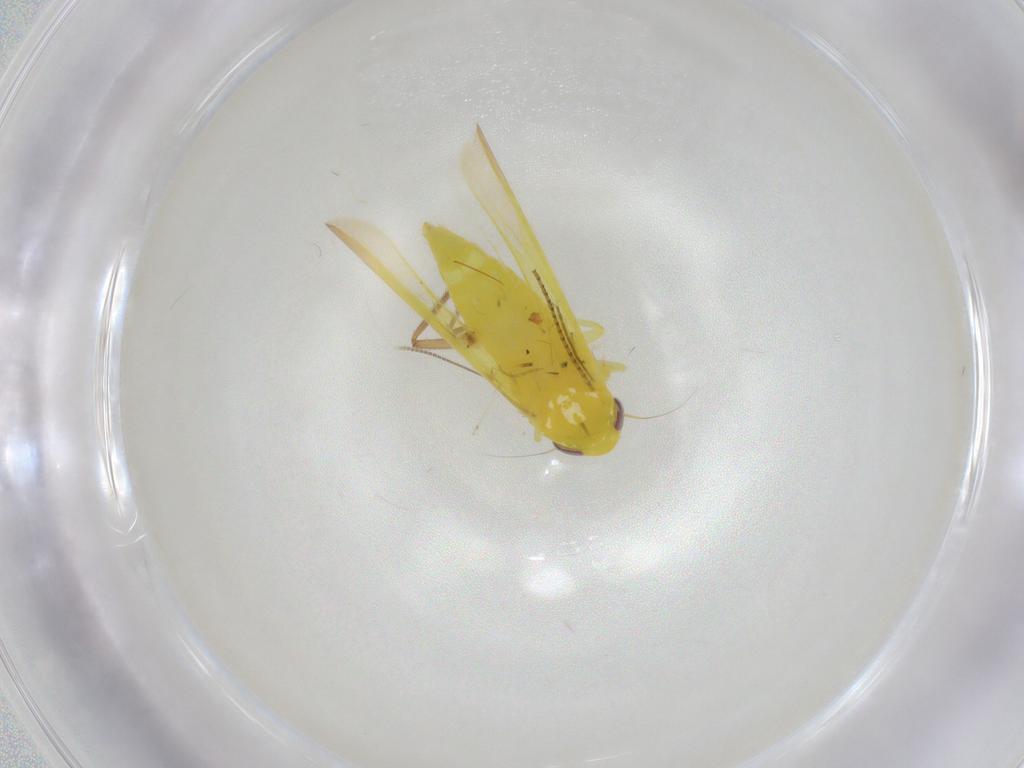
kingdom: Animalia
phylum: Arthropoda
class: Insecta
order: Hemiptera
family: Cicadellidae
